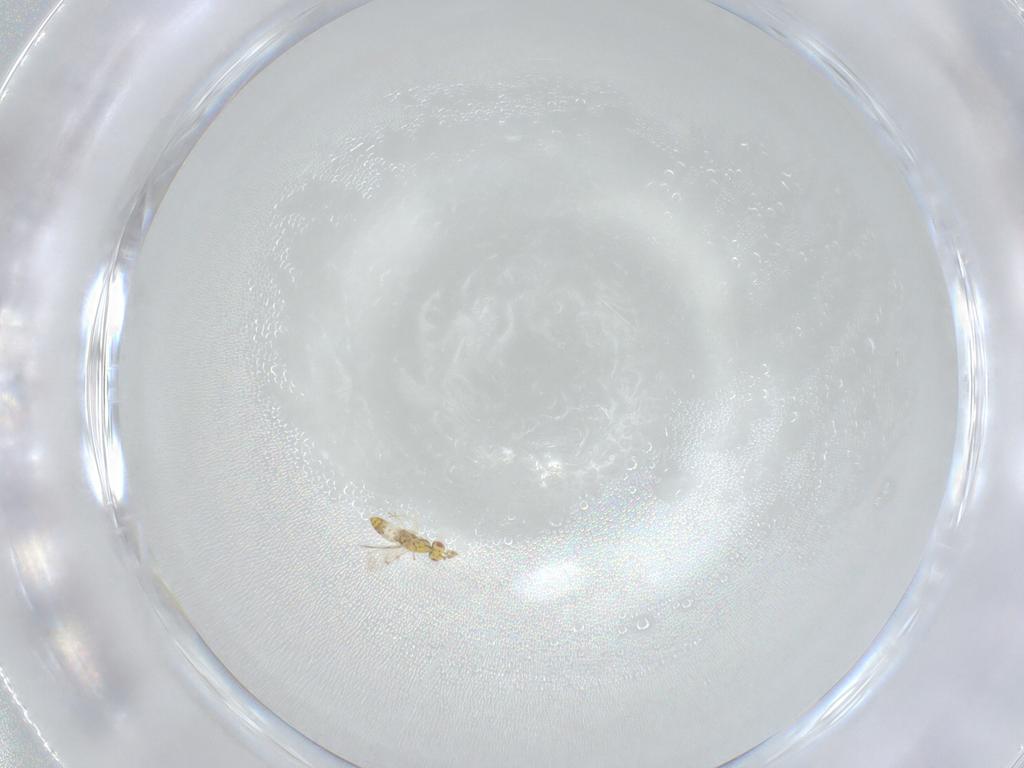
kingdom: Animalia
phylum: Arthropoda
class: Insecta
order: Hymenoptera
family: Eulophidae
